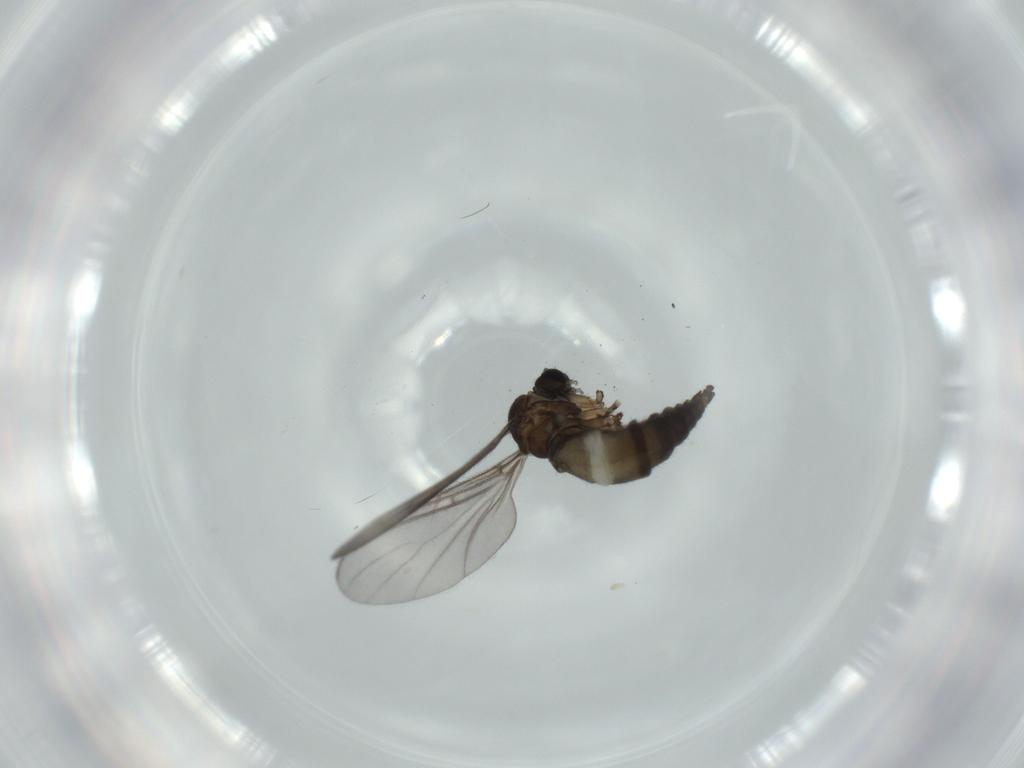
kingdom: Animalia
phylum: Arthropoda
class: Insecta
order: Diptera
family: Sciaridae
